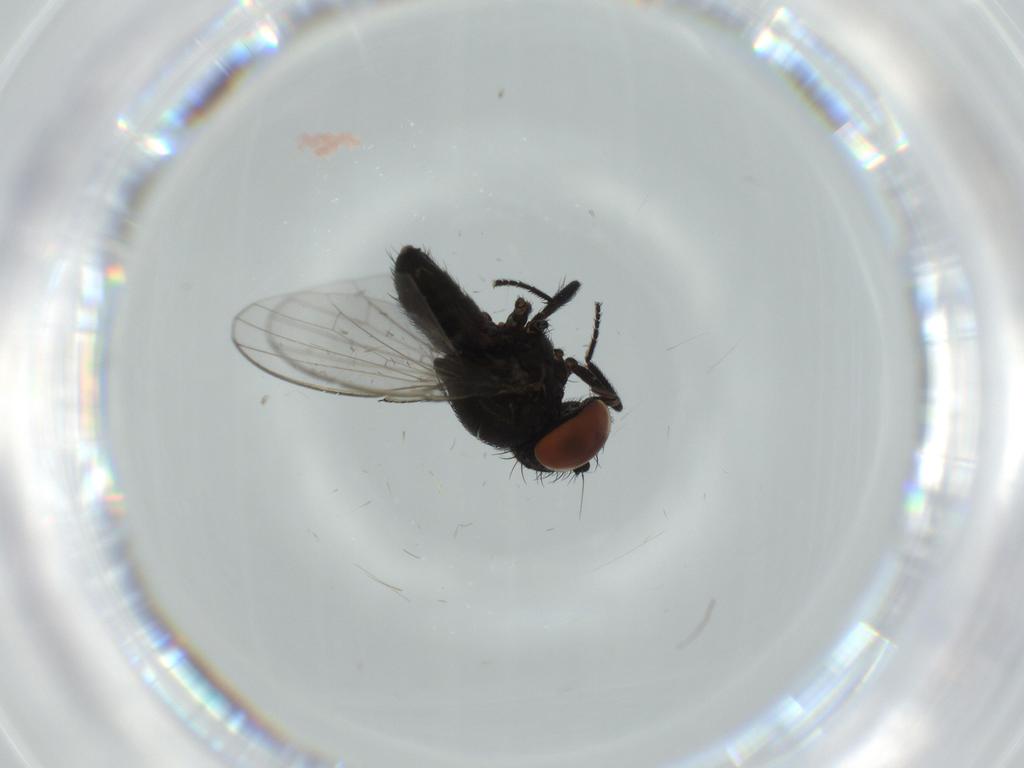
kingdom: Animalia
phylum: Arthropoda
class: Insecta
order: Diptera
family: Milichiidae
